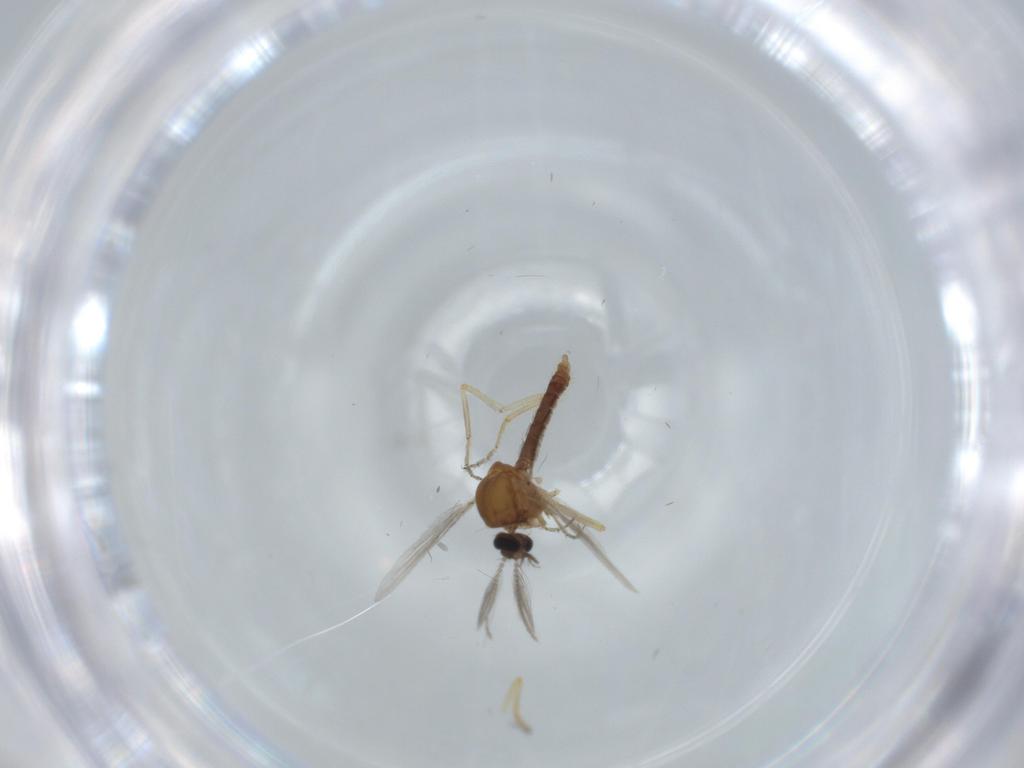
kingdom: Animalia
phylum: Arthropoda
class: Insecta
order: Diptera
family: Ceratopogonidae
